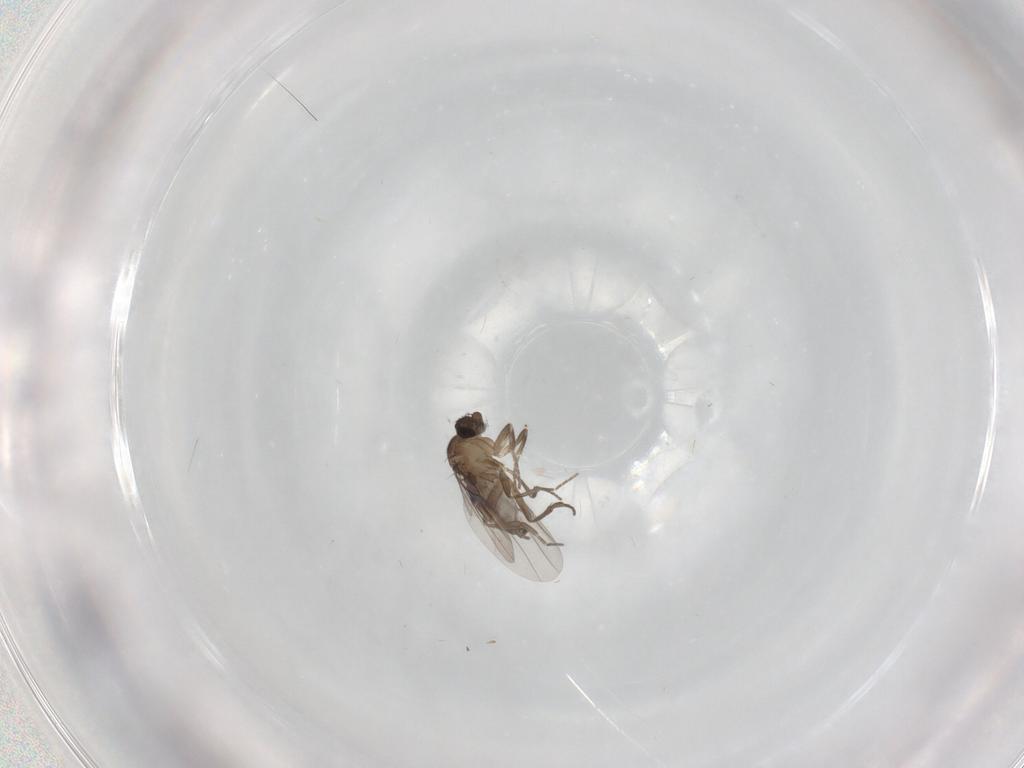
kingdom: Animalia
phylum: Arthropoda
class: Insecta
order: Diptera
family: Phoridae
